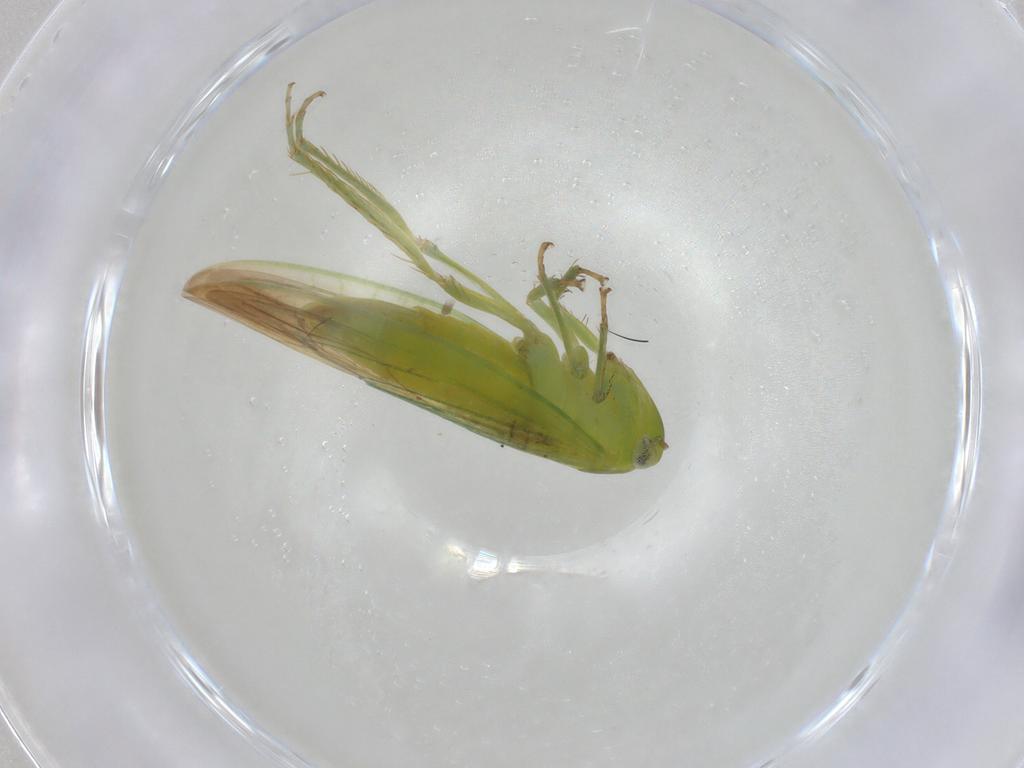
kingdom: Animalia
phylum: Arthropoda
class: Insecta
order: Hemiptera
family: Cicadellidae
